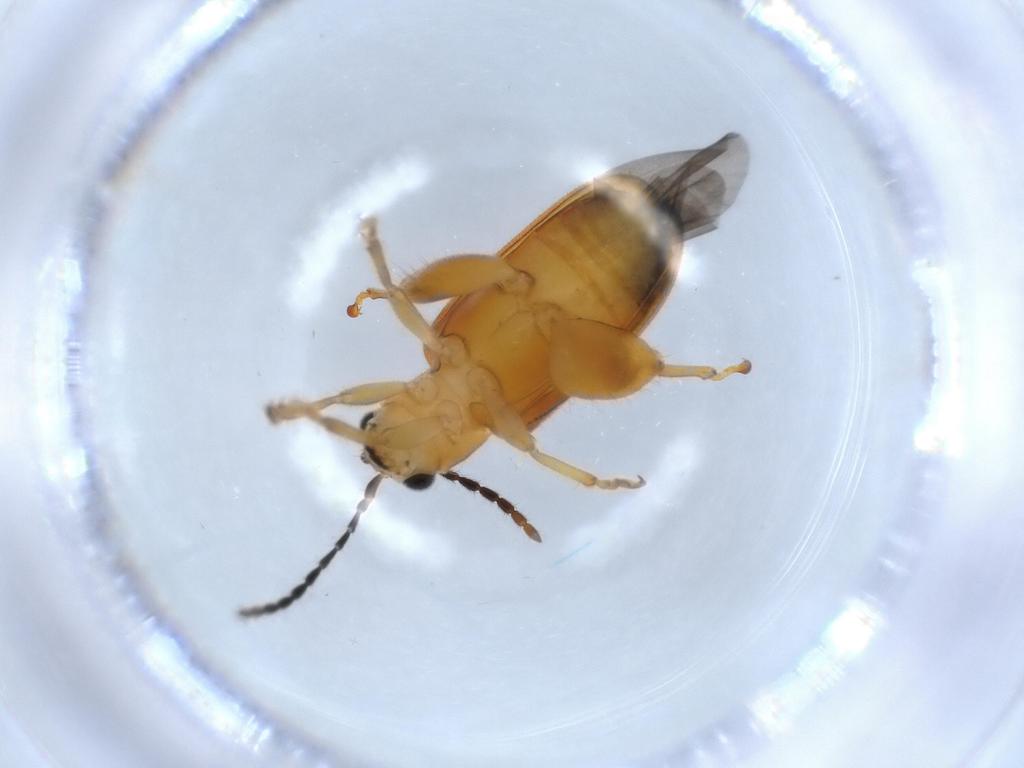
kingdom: Animalia
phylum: Arthropoda
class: Insecta
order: Coleoptera
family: Chrysomelidae
